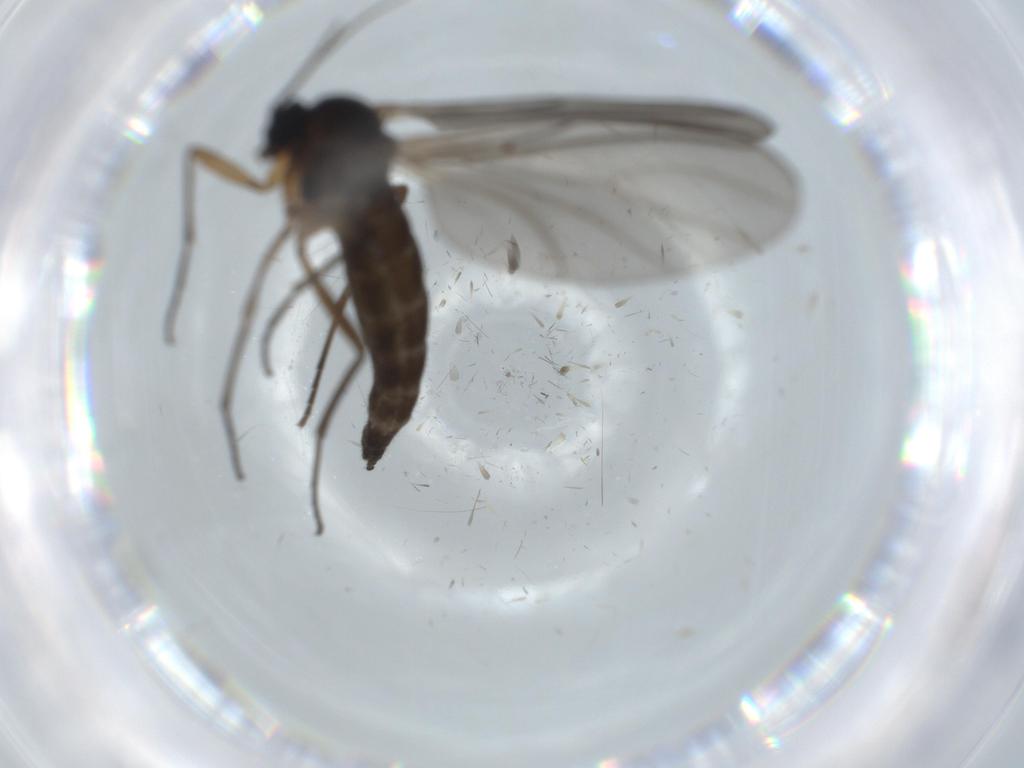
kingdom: Animalia
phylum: Arthropoda
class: Insecta
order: Diptera
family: Sciaridae
